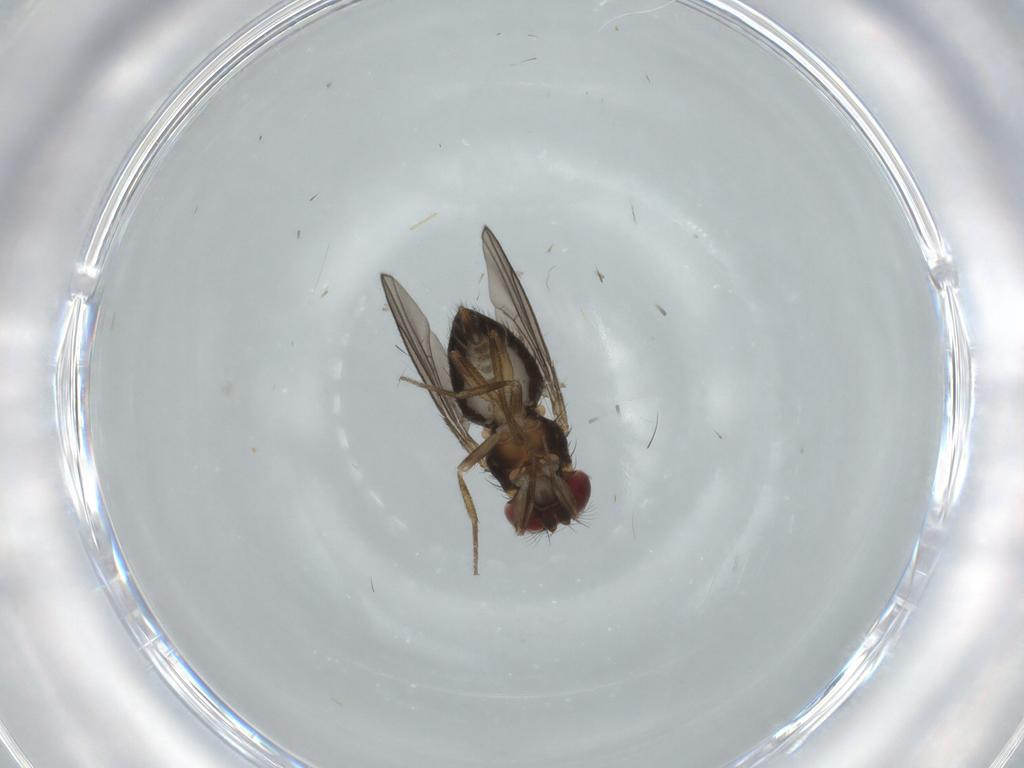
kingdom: Animalia
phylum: Arthropoda
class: Insecta
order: Diptera
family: Drosophilidae
